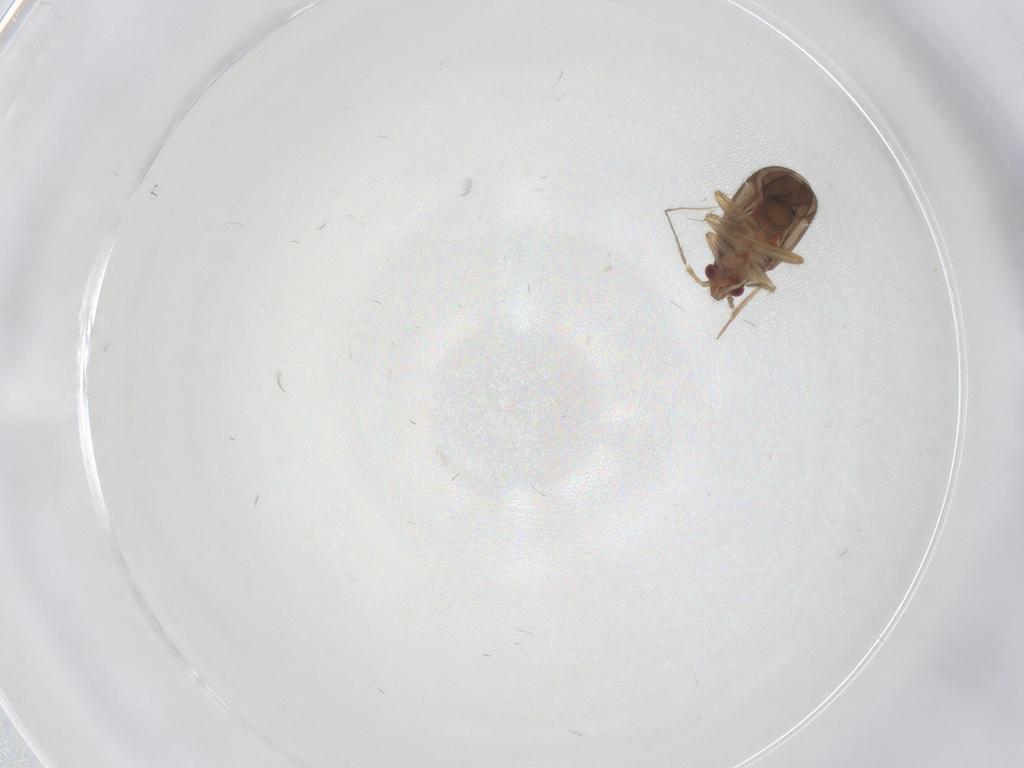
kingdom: Animalia
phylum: Arthropoda
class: Insecta
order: Hemiptera
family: Ceratocombidae
